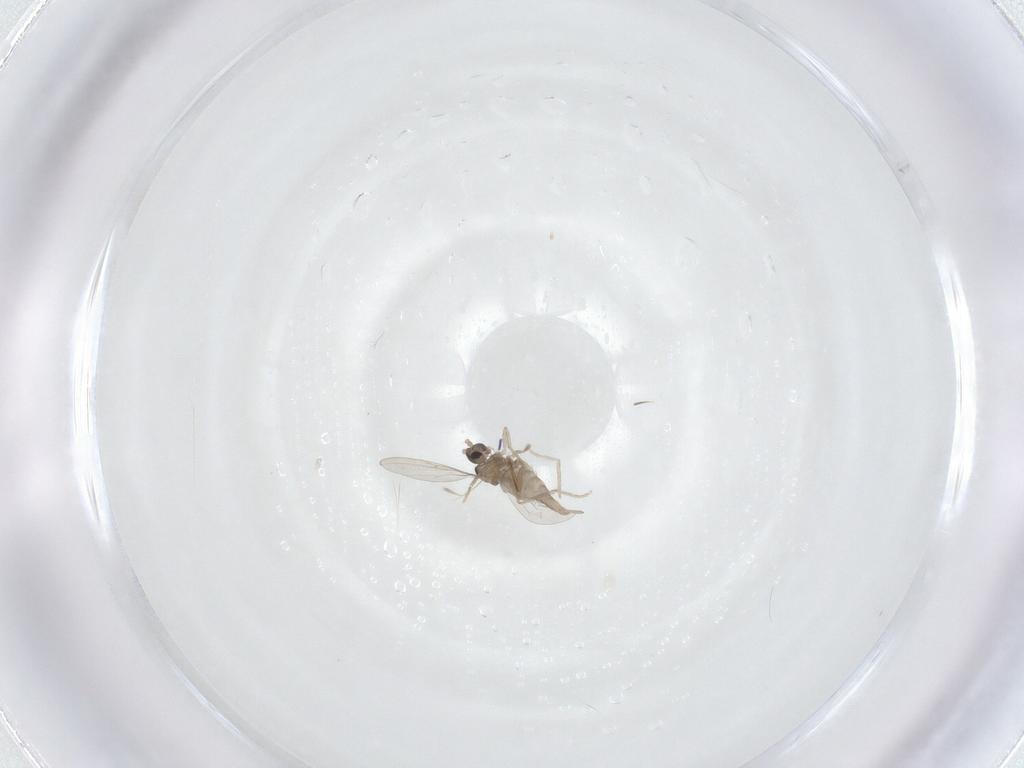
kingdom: Animalia
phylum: Arthropoda
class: Insecta
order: Diptera
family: Chironomidae
